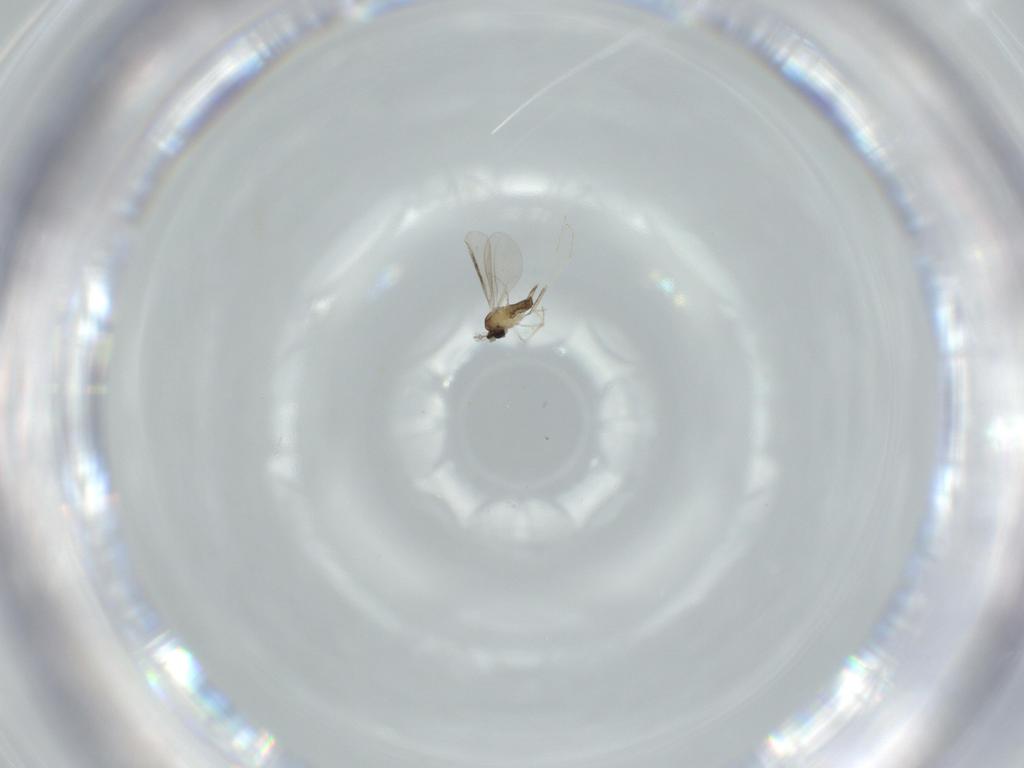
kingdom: Animalia
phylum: Arthropoda
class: Insecta
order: Diptera
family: Cecidomyiidae
